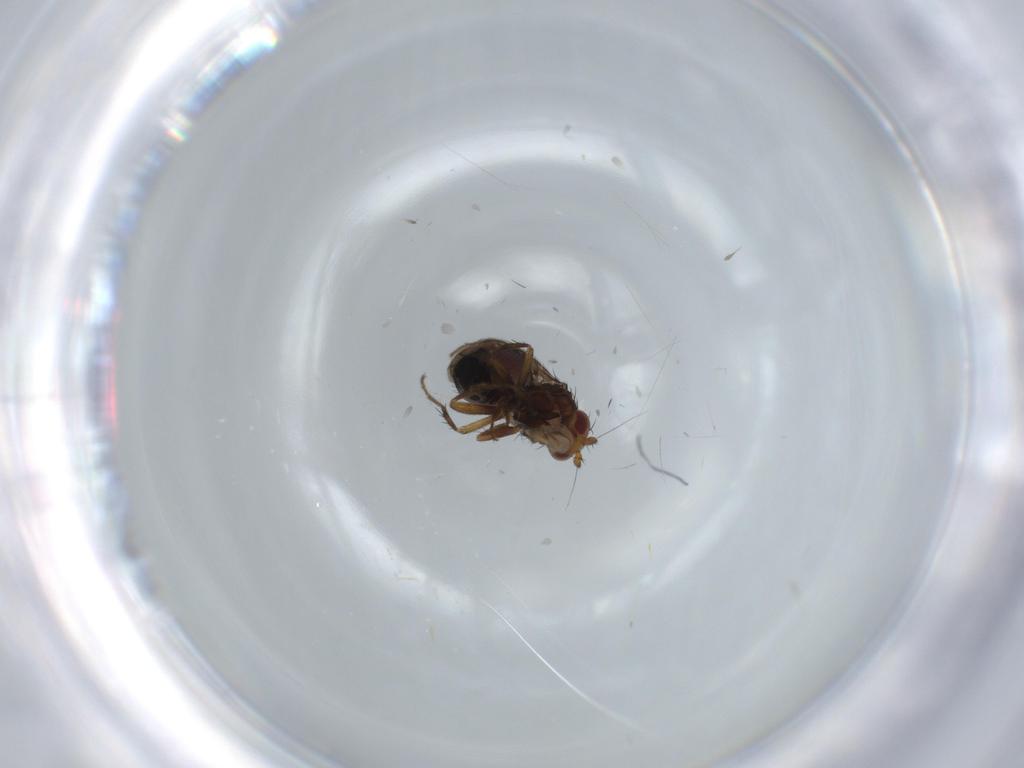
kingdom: Animalia
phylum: Arthropoda
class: Insecta
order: Diptera
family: Sphaeroceridae
